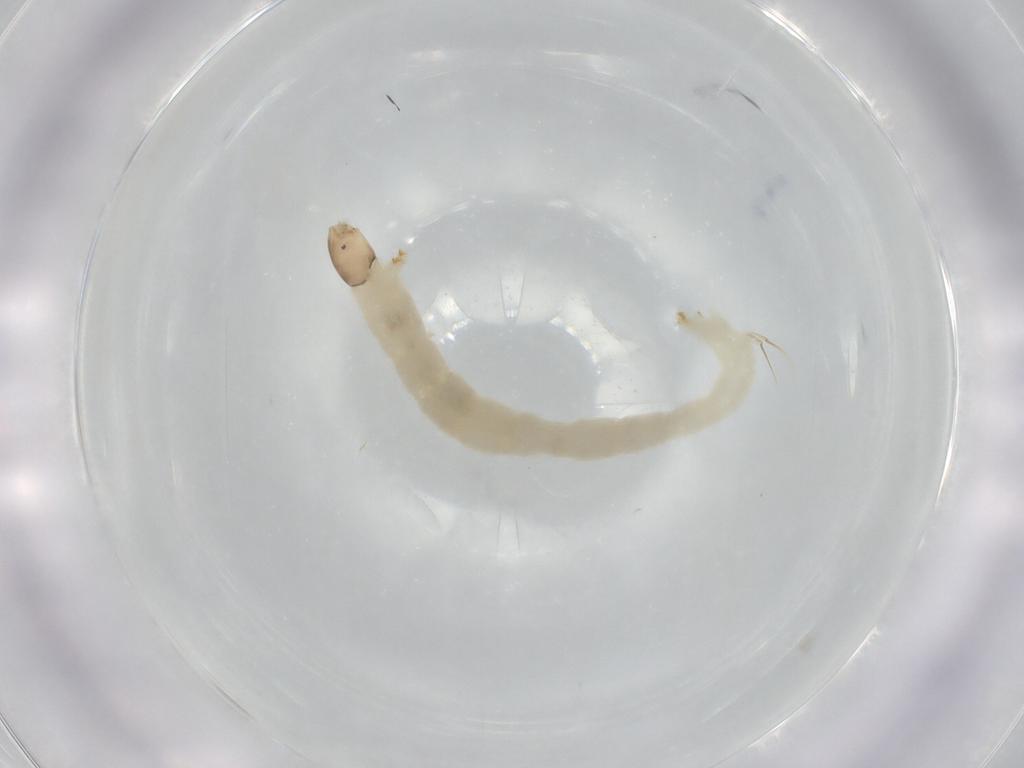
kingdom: Animalia
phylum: Arthropoda
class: Insecta
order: Diptera
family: Chironomidae
